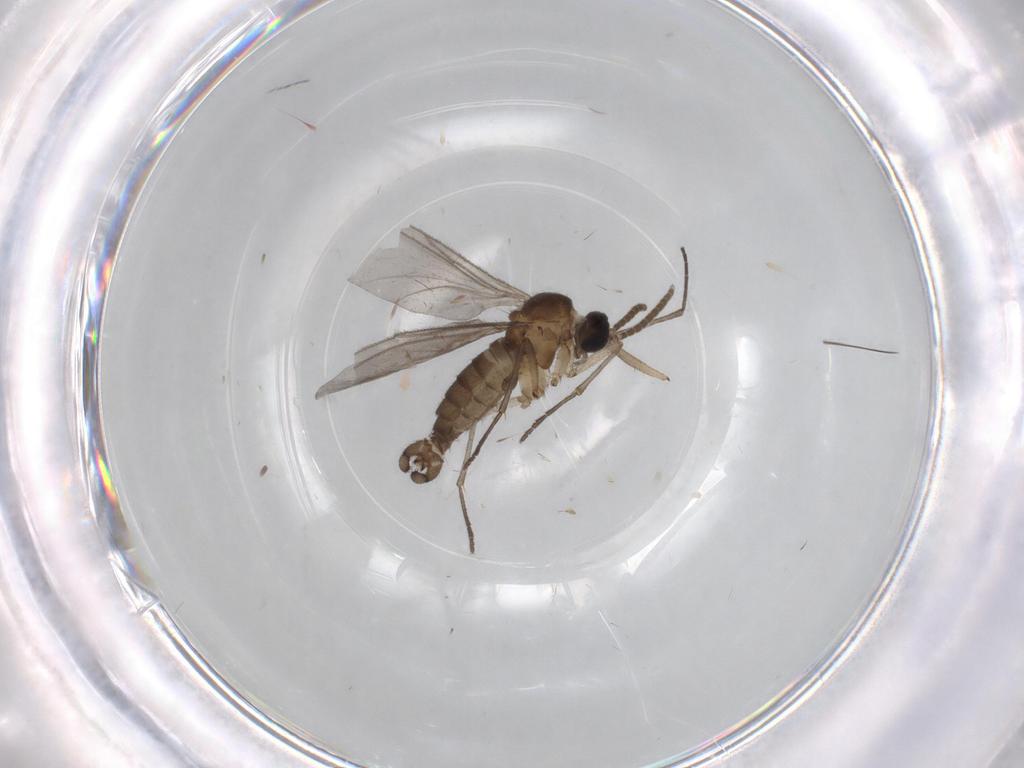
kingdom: Animalia
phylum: Arthropoda
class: Insecta
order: Diptera
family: Sciaridae
